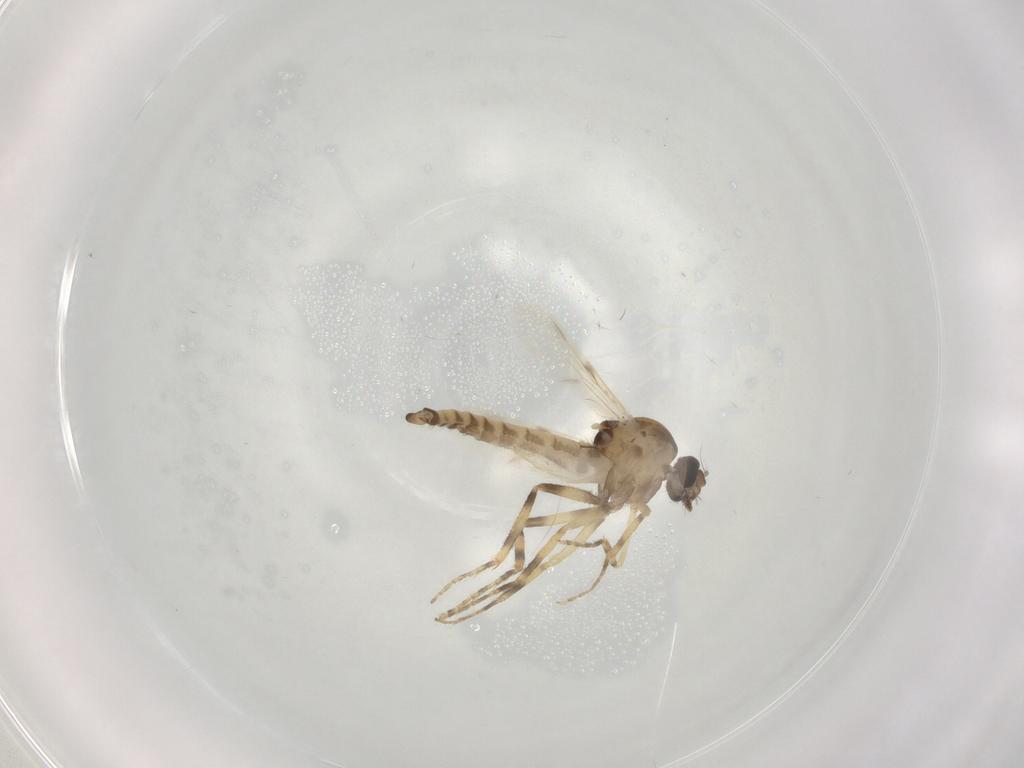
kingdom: Animalia
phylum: Arthropoda
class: Insecta
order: Diptera
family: Ceratopogonidae
